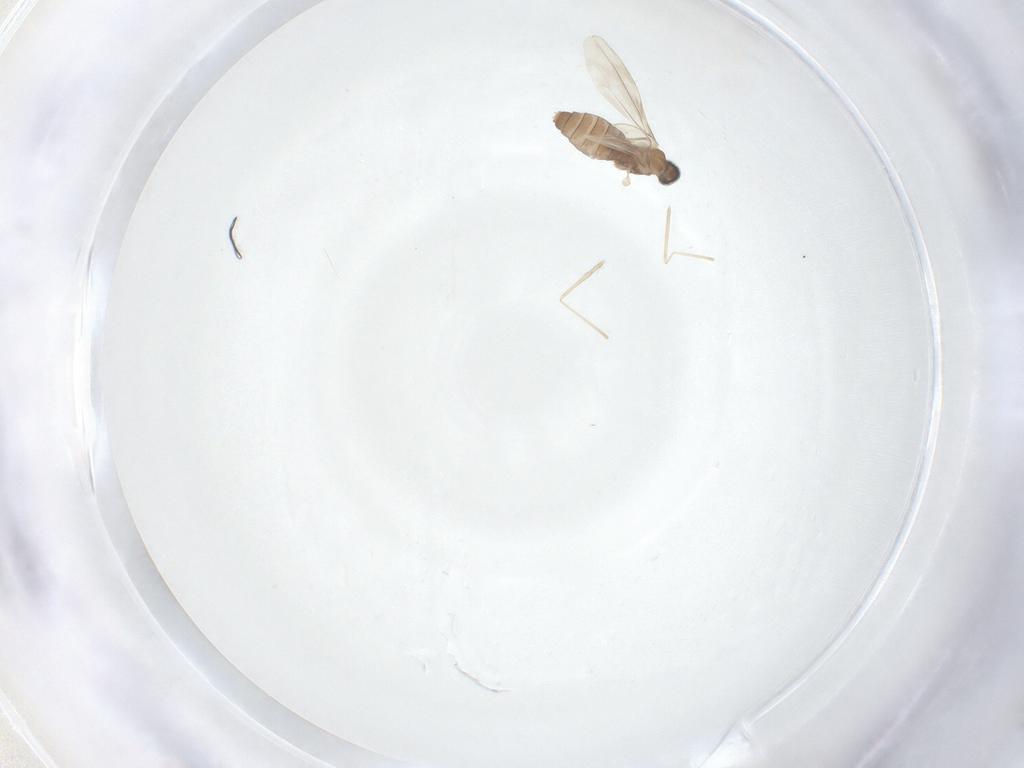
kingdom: Animalia
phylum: Arthropoda
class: Insecta
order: Diptera
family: Cecidomyiidae
